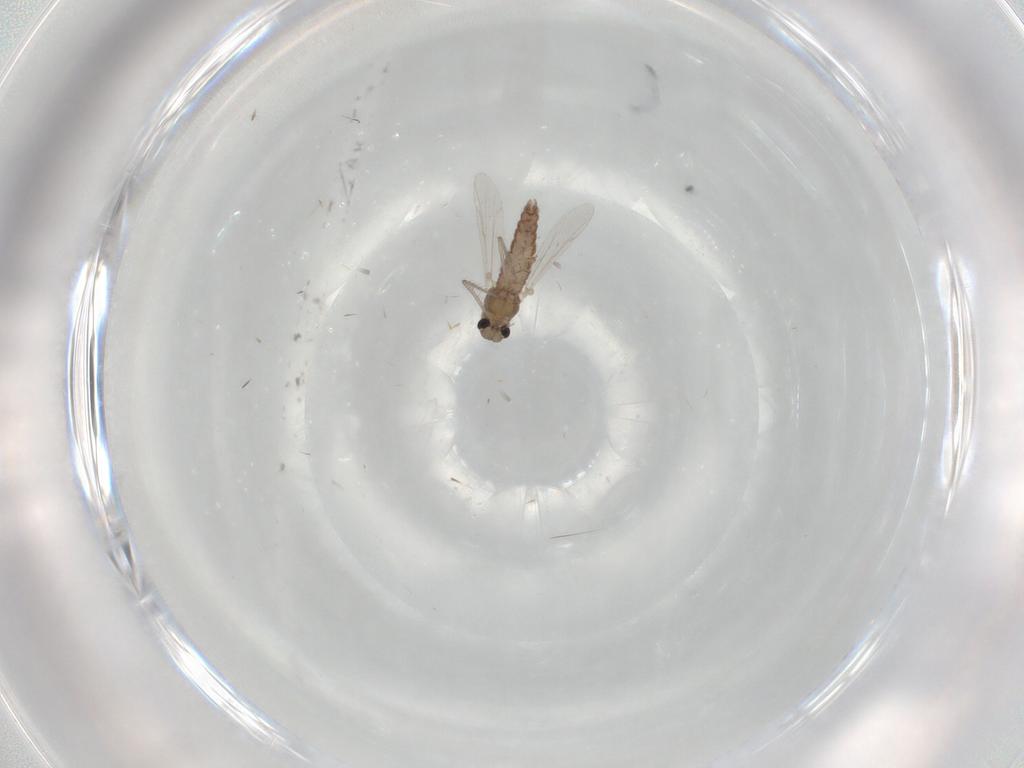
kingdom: Animalia
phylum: Arthropoda
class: Insecta
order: Diptera
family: Chironomidae
